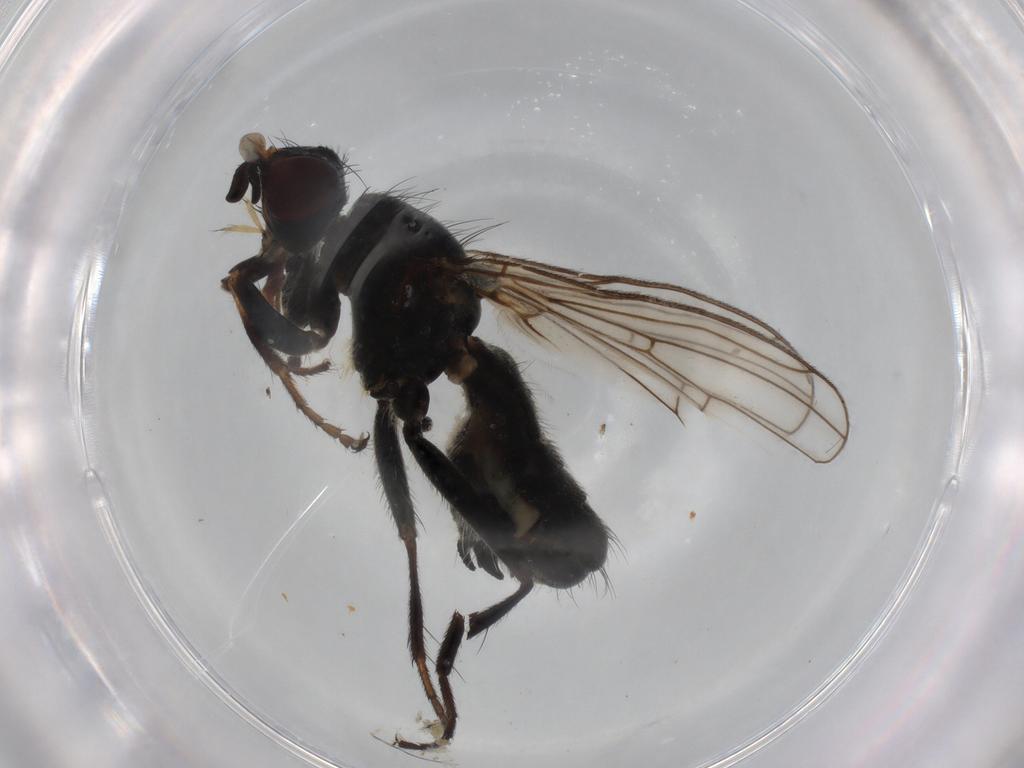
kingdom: Animalia
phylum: Arthropoda
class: Insecta
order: Diptera
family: Scathophagidae
